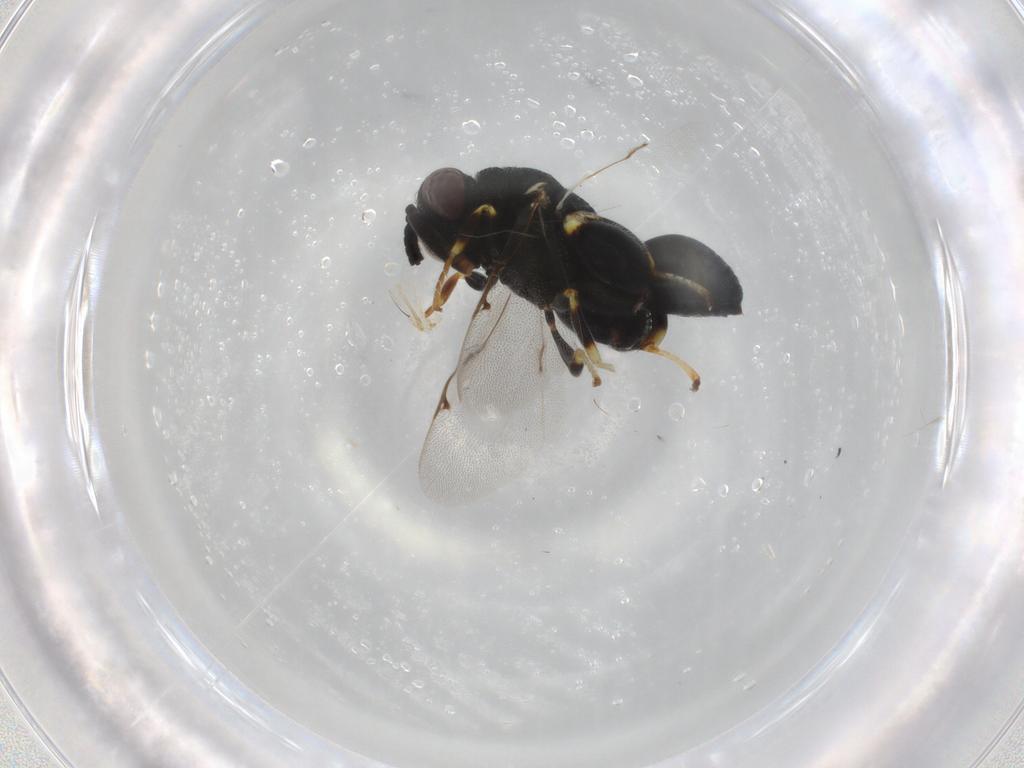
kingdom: Animalia
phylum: Arthropoda
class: Insecta
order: Hymenoptera
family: Chalcididae
